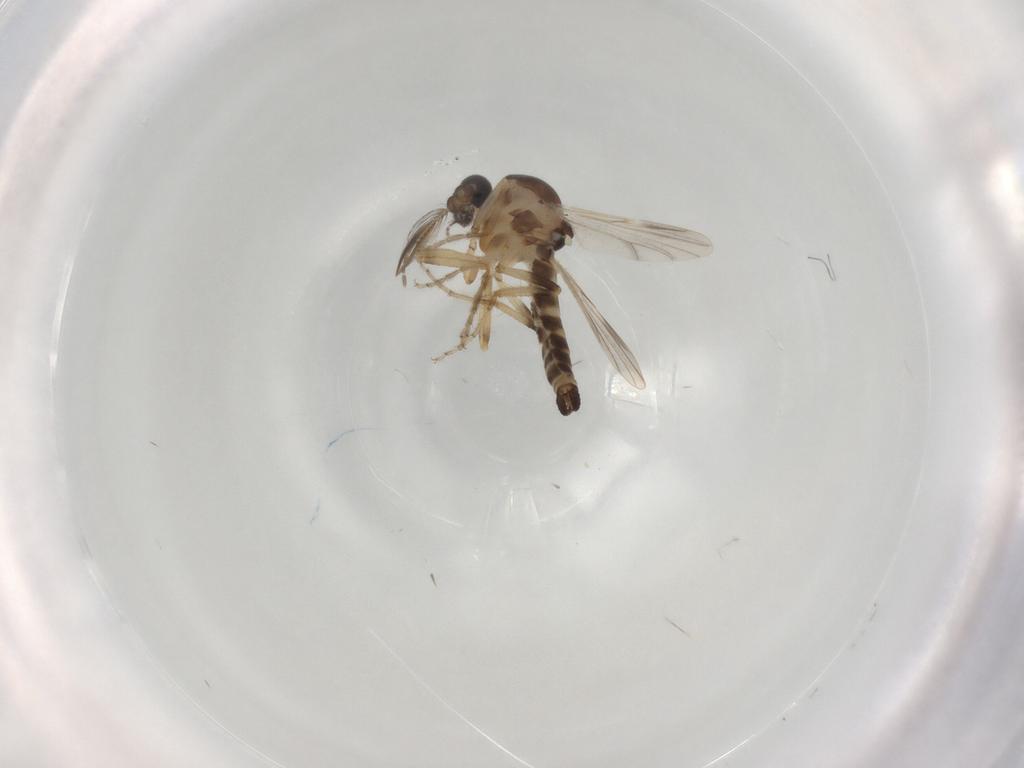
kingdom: Animalia
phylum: Arthropoda
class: Insecta
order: Diptera
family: Ceratopogonidae
